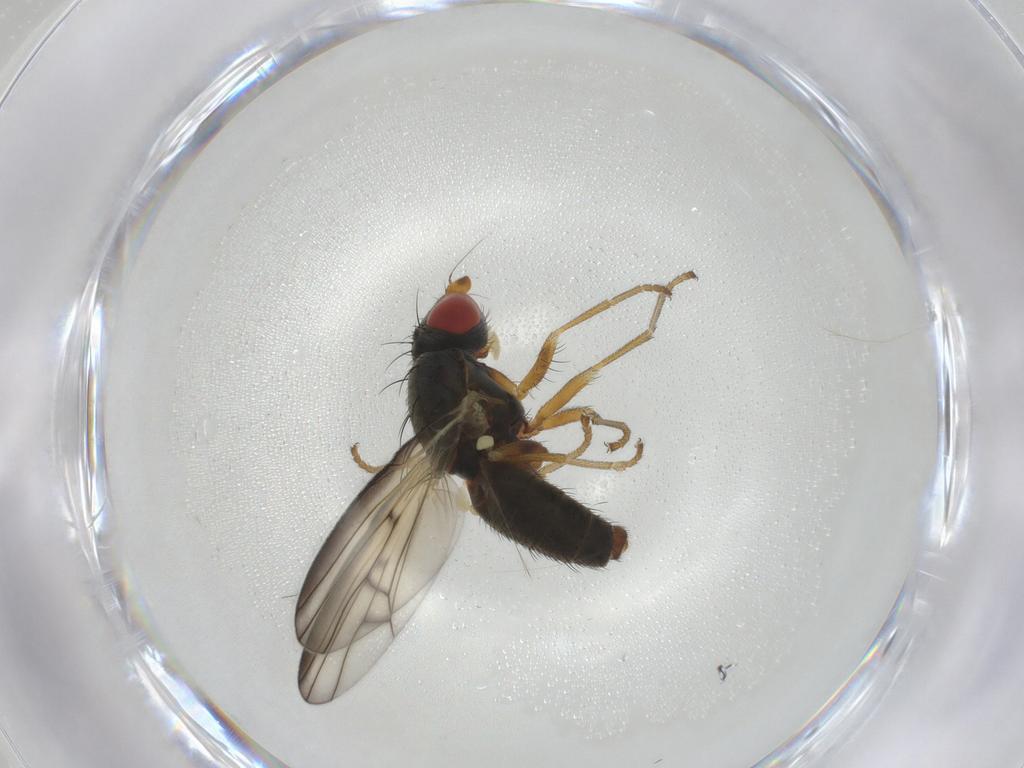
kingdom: Animalia
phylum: Arthropoda
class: Insecta
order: Diptera
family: Chamaemyiidae
